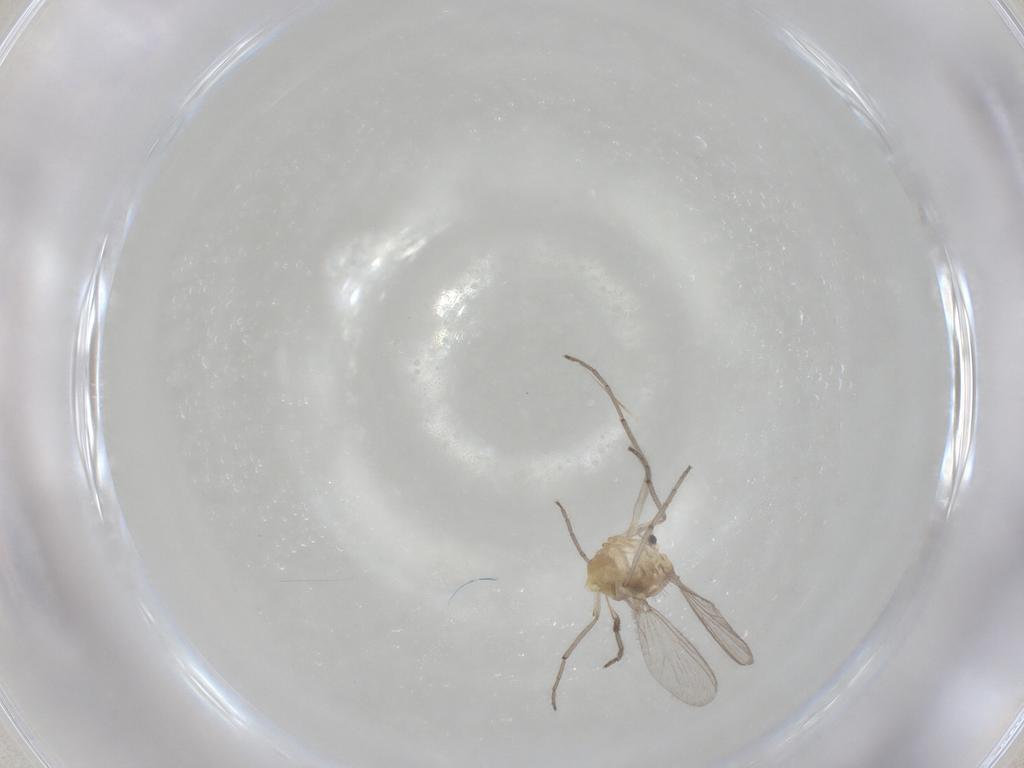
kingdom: Animalia
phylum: Arthropoda
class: Insecta
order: Diptera
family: Chironomidae
